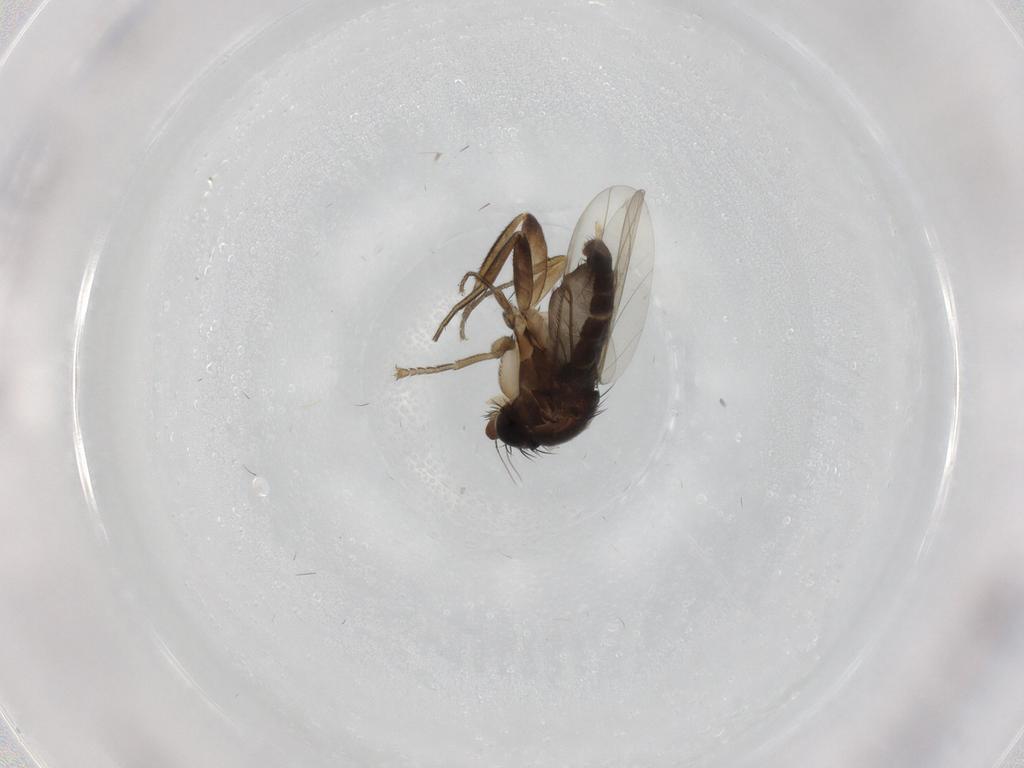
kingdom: Animalia
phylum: Arthropoda
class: Insecta
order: Diptera
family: Phoridae
